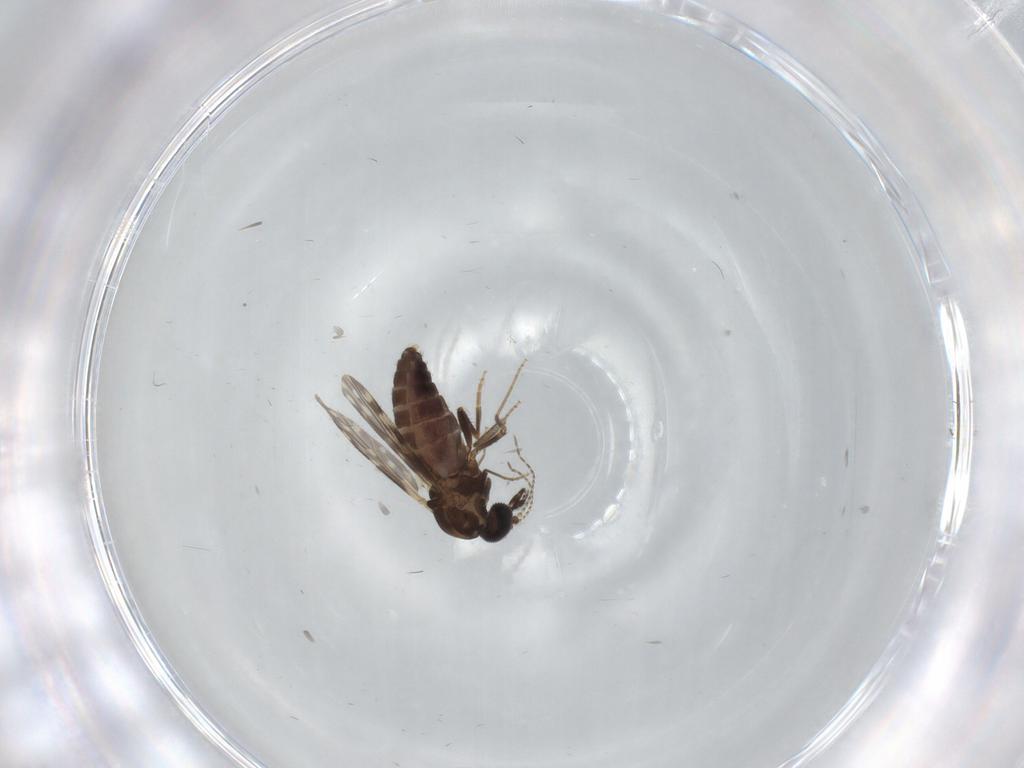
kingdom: Animalia
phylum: Arthropoda
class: Insecta
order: Diptera
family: Ceratopogonidae
